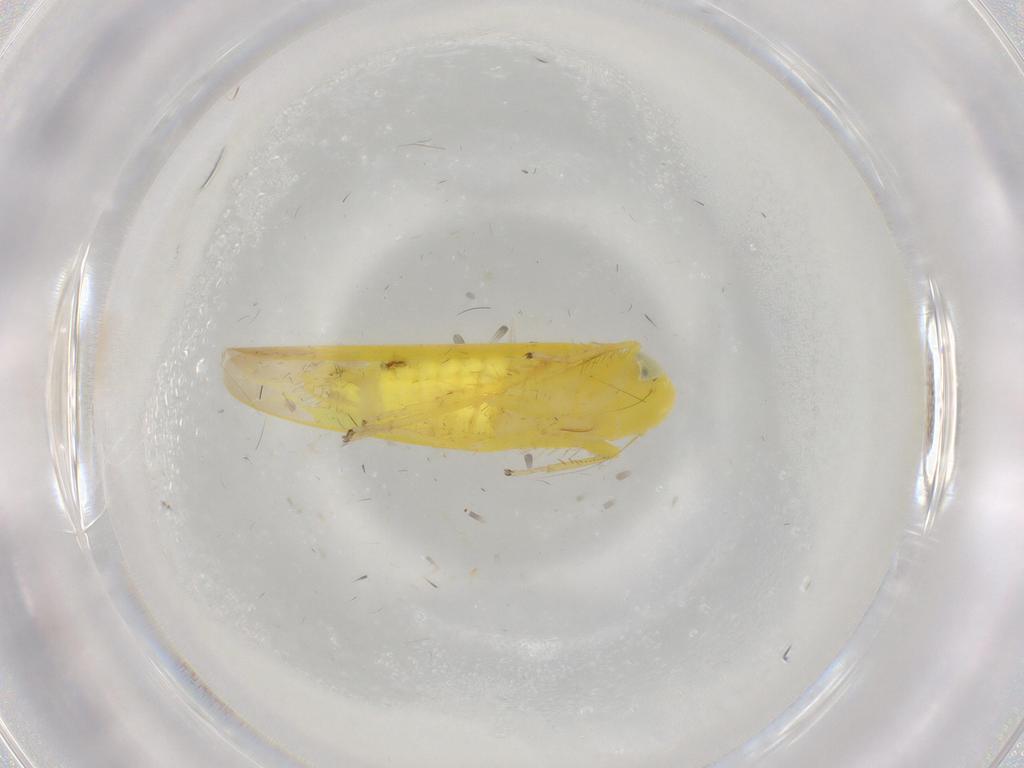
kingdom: Animalia
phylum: Arthropoda
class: Insecta
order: Hemiptera
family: Cicadellidae
